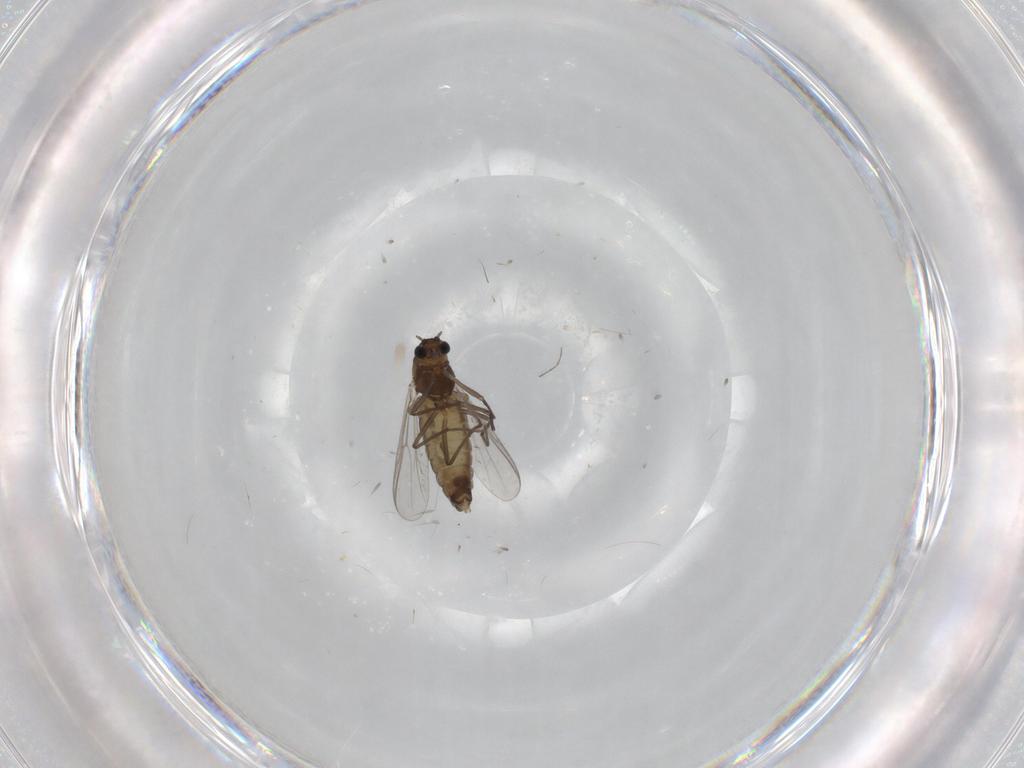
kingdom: Animalia
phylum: Arthropoda
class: Insecta
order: Diptera
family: Chironomidae
